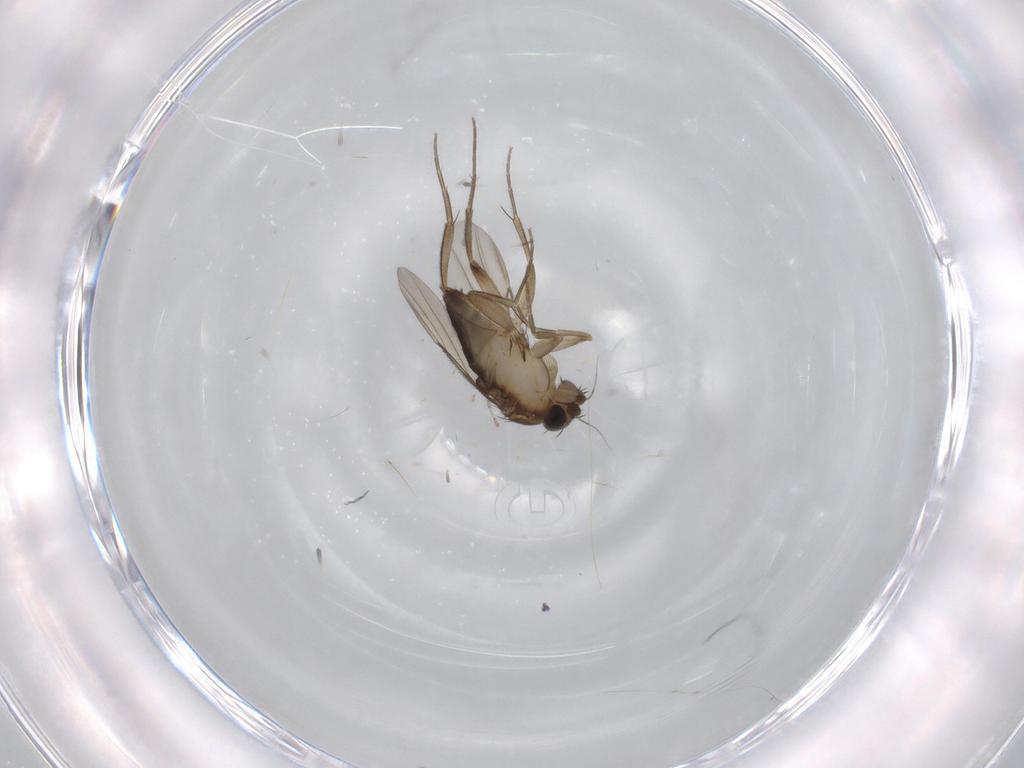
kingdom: Animalia
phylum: Arthropoda
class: Insecta
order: Diptera
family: Phoridae
